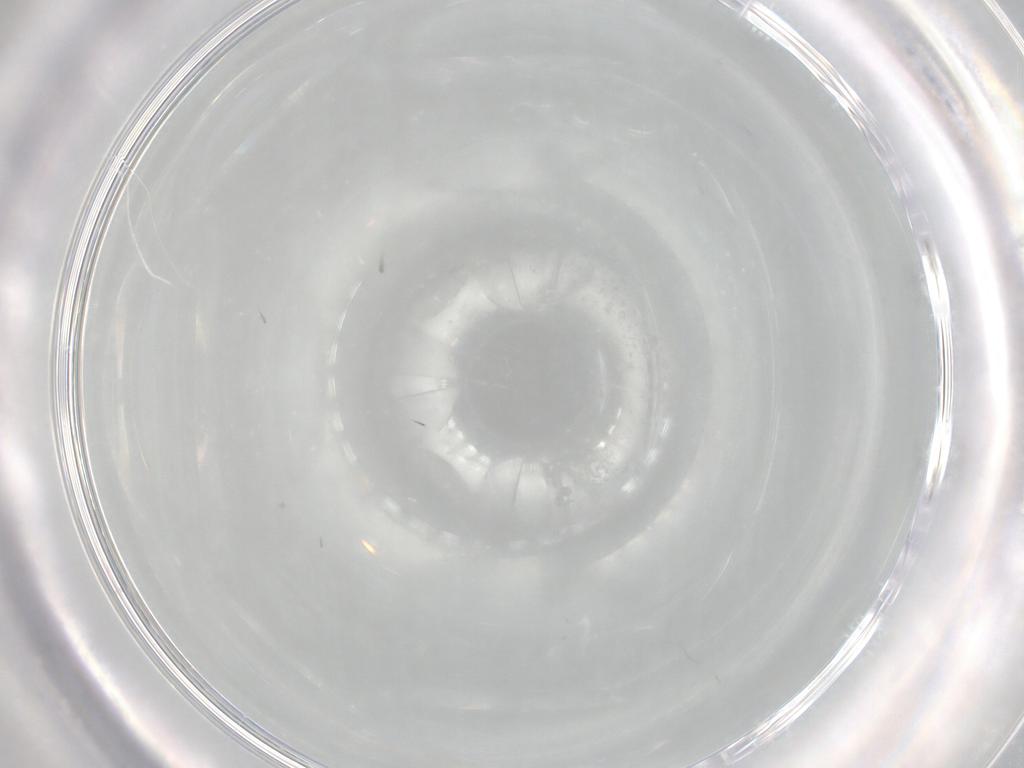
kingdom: Animalia
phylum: Arthropoda
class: Insecta
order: Diptera
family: Tachinidae
